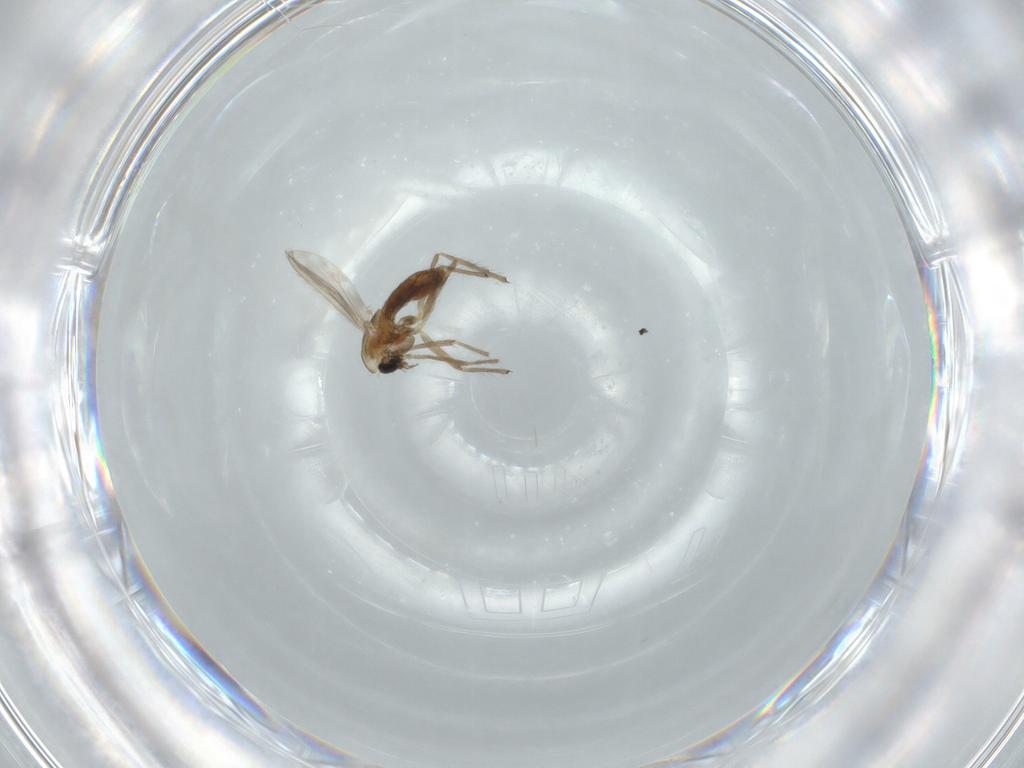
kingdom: Animalia
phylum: Arthropoda
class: Insecta
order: Diptera
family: Chironomidae
